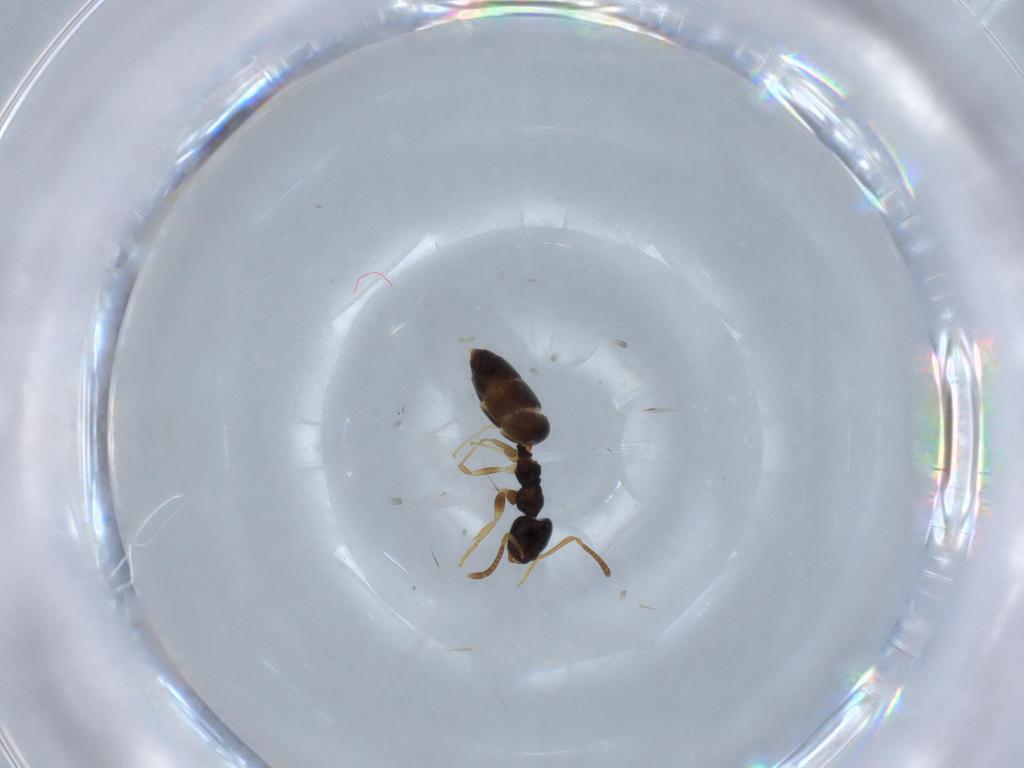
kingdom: Animalia
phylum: Arthropoda
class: Insecta
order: Hymenoptera
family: Formicidae
